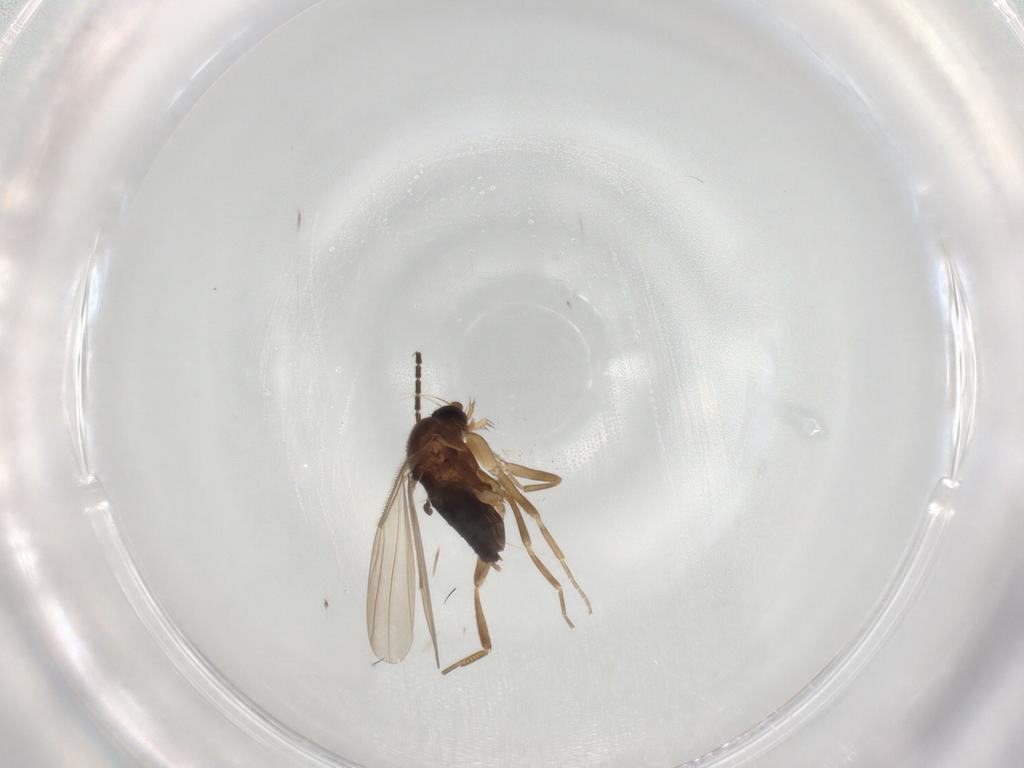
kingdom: Animalia
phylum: Arthropoda
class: Insecta
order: Diptera
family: Phoridae
